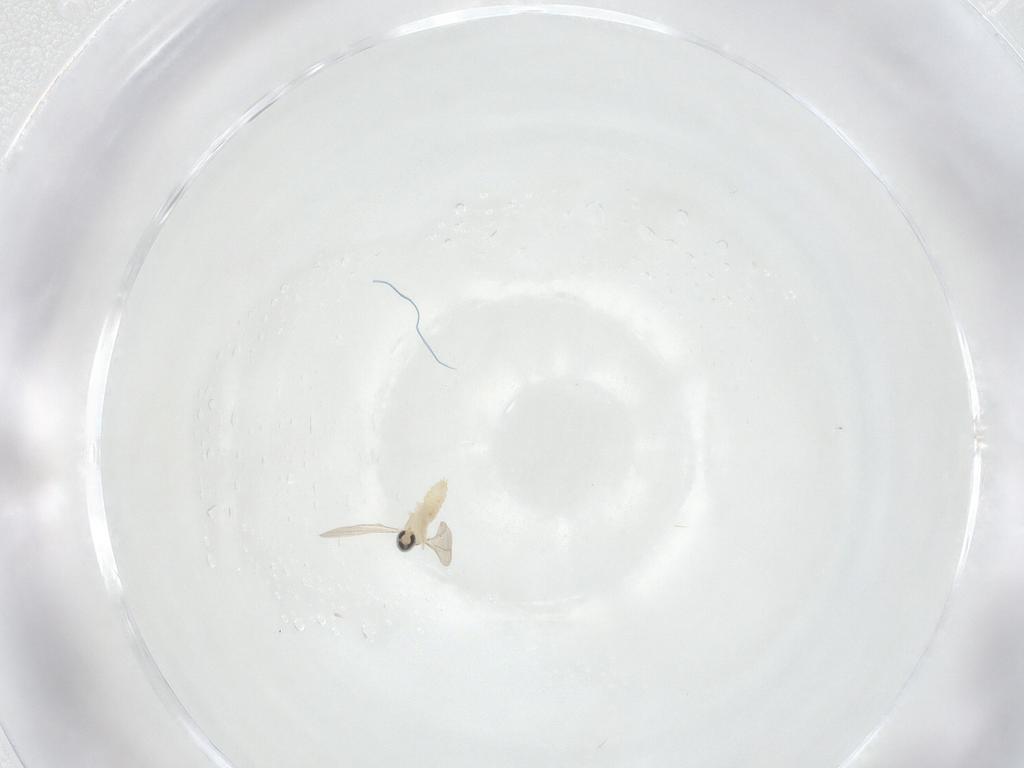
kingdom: Animalia
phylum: Arthropoda
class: Insecta
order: Diptera
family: Cecidomyiidae
